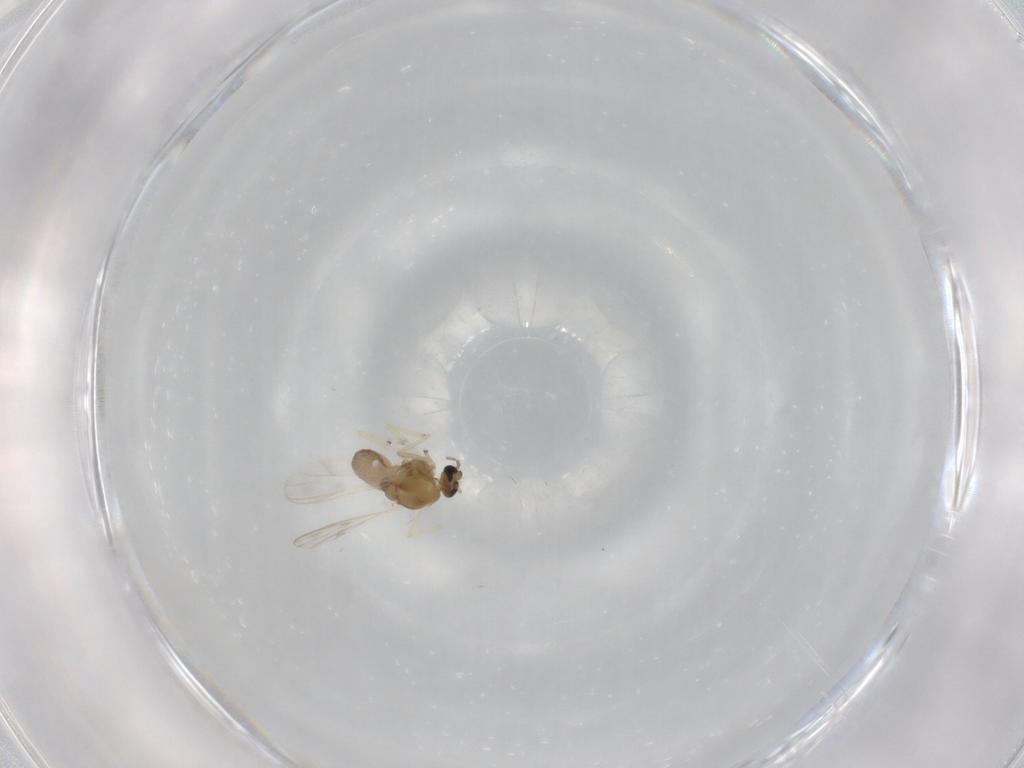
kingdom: Animalia
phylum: Arthropoda
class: Insecta
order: Diptera
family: Chironomidae
